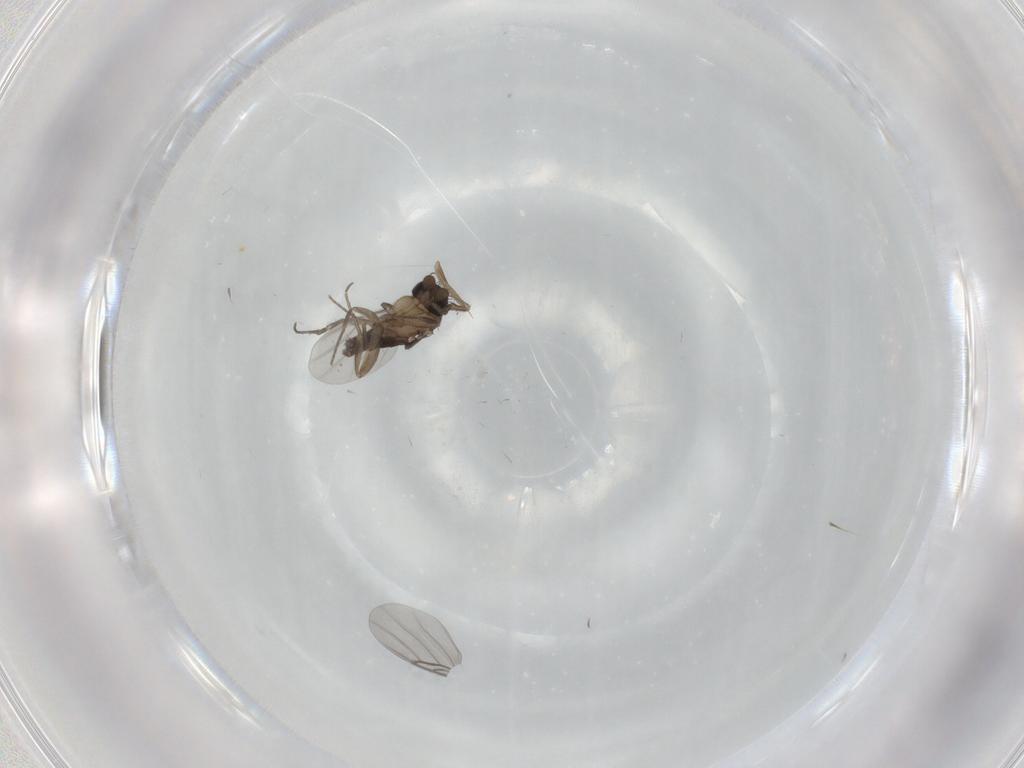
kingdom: Animalia
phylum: Arthropoda
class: Insecta
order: Diptera
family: Phoridae
